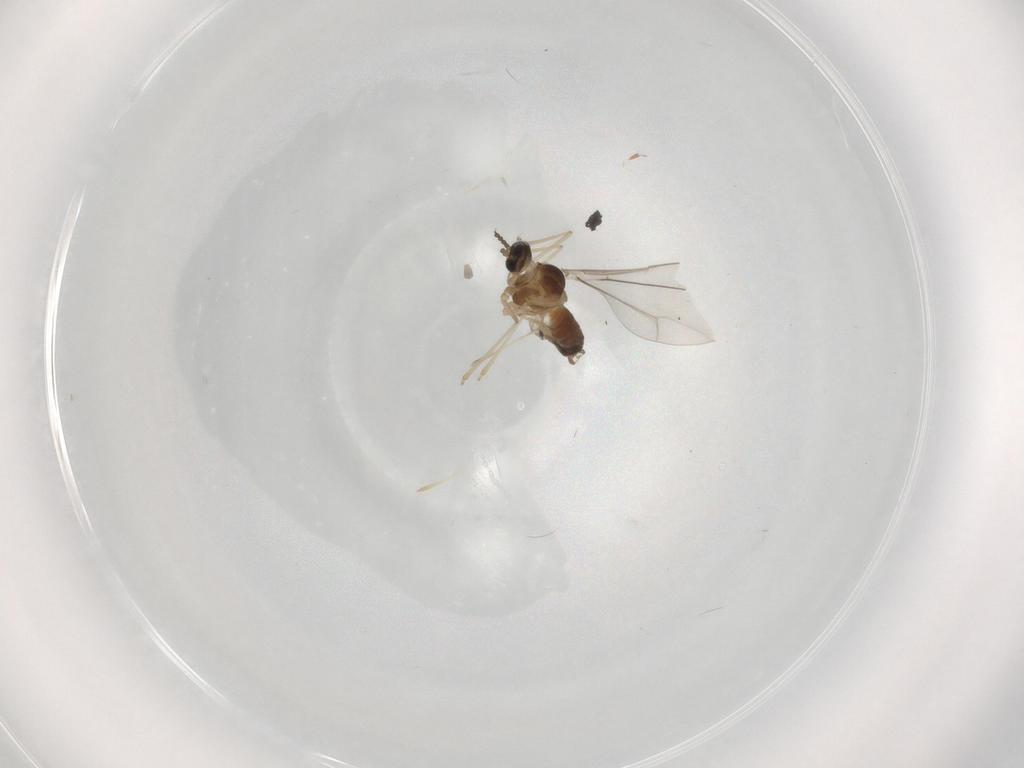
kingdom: Animalia
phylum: Arthropoda
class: Insecta
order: Diptera
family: Cecidomyiidae
